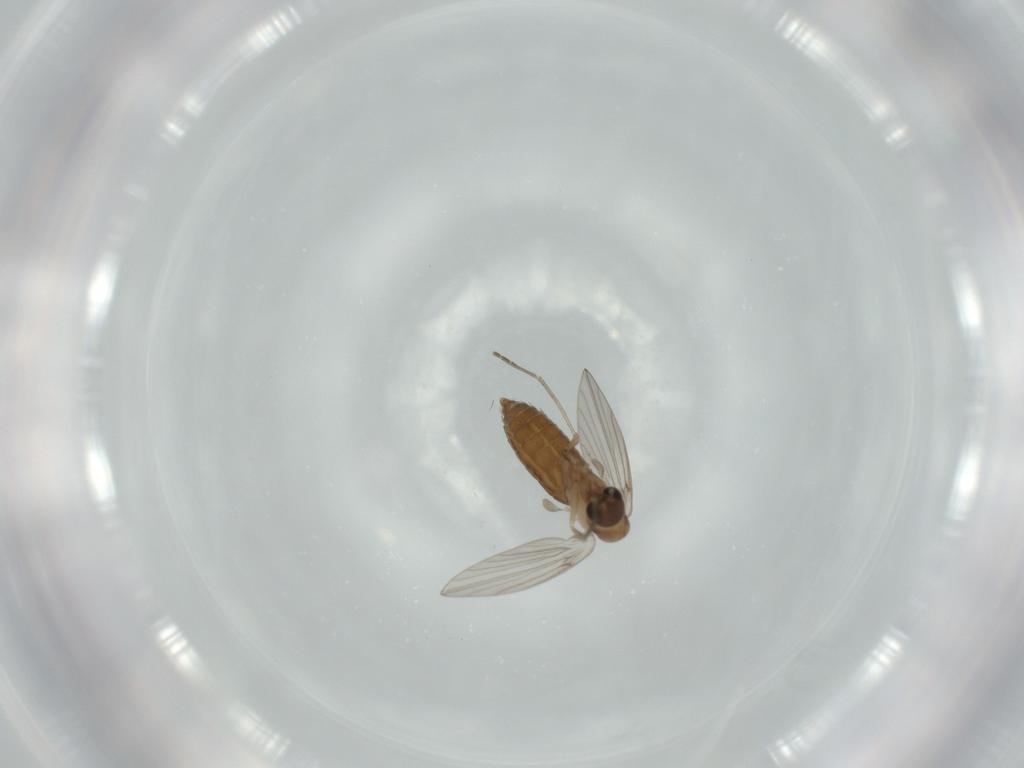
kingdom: Animalia
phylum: Arthropoda
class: Insecta
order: Diptera
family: Psychodidae
